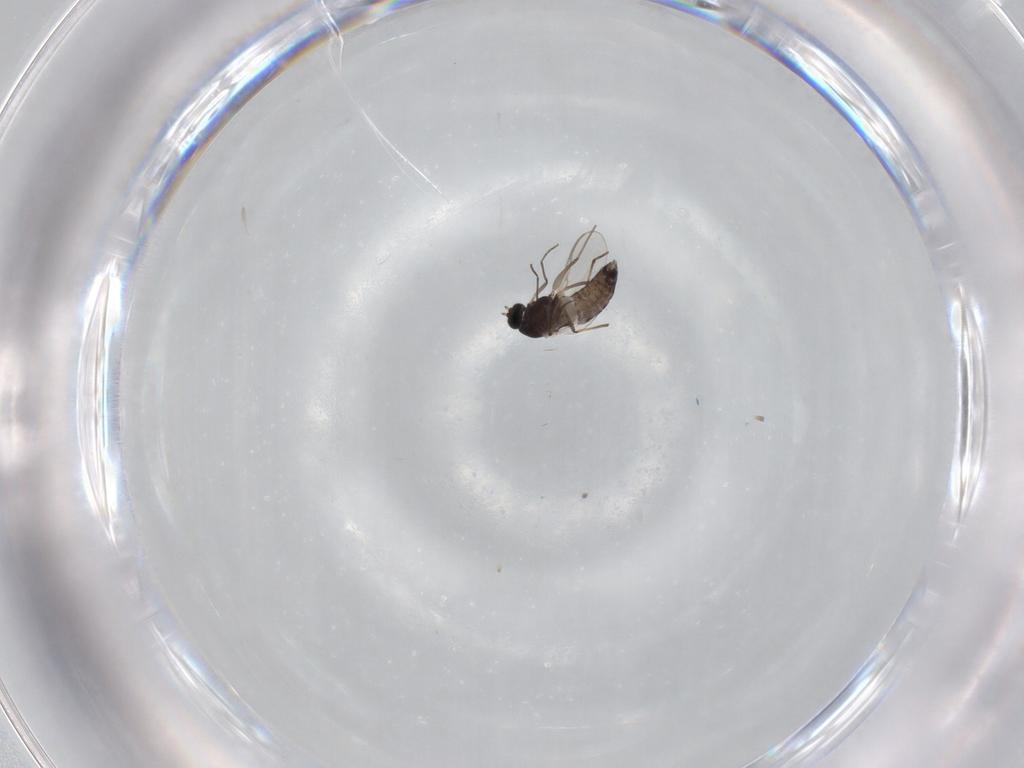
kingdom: Animalia
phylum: Arthropoda
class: Insecta
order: Diptera
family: Chironomidae
